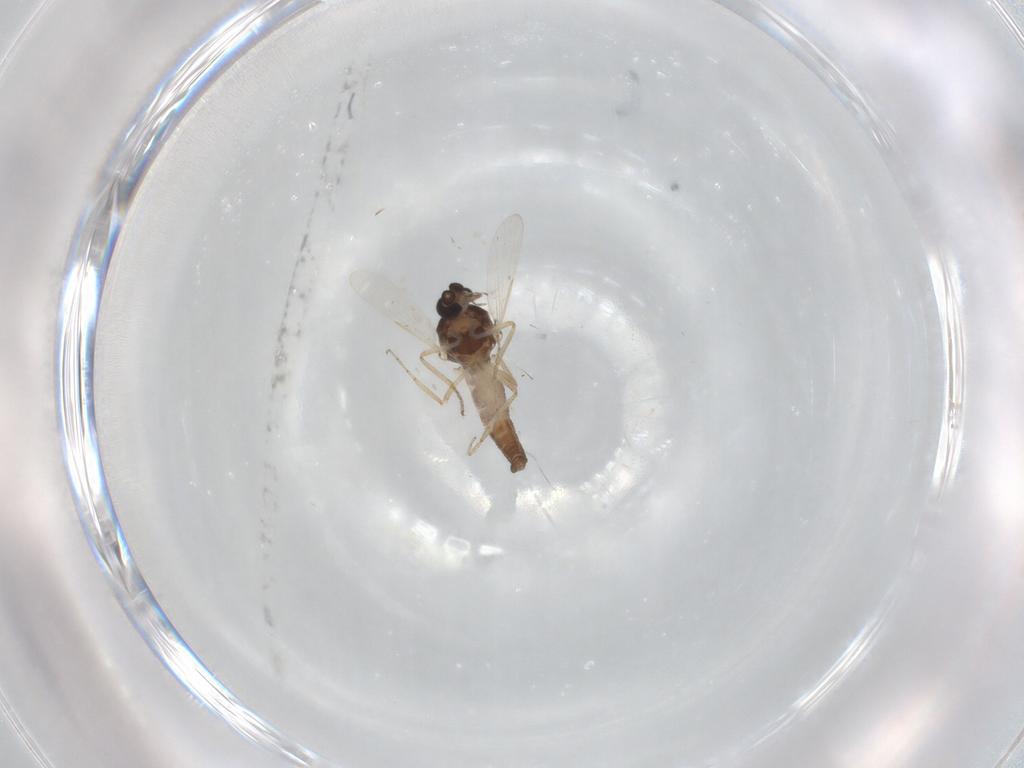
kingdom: Animalia
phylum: Arthropoda
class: Insecta
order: Diptera
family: Ceratopogonidae
